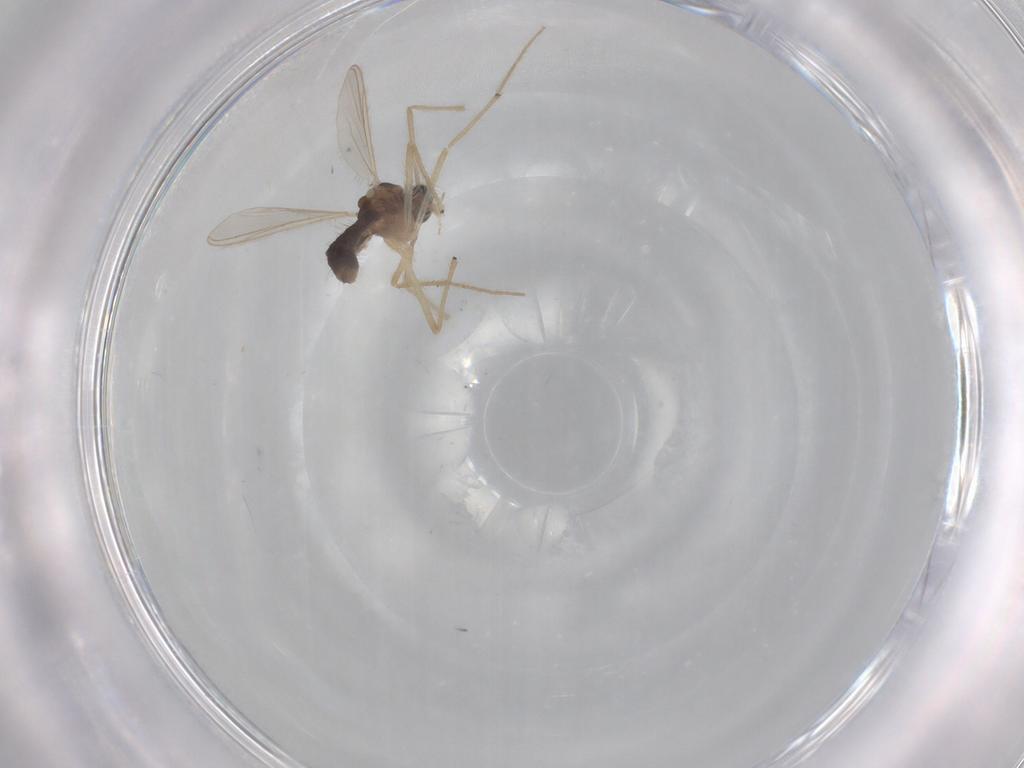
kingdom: Animalia
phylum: Arthropoda
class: Insecta
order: Diptera
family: Chironomidae
